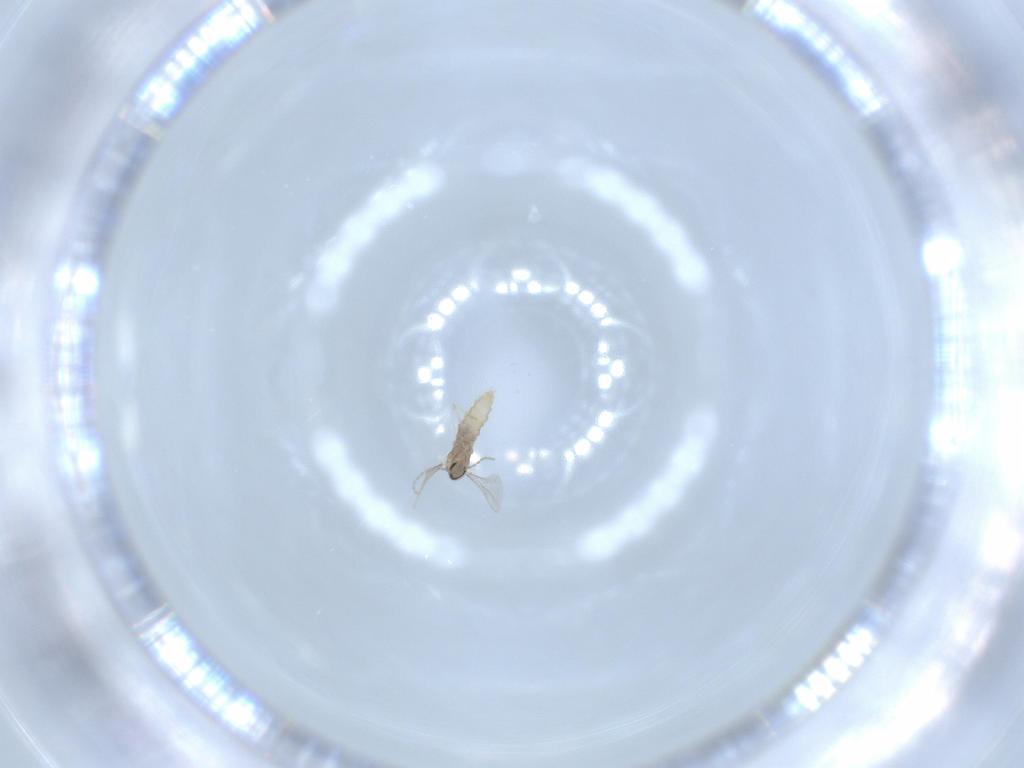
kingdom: Animalia
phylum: Arthropoda
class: Insecta
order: Diptera
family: Cecidomyiidae
